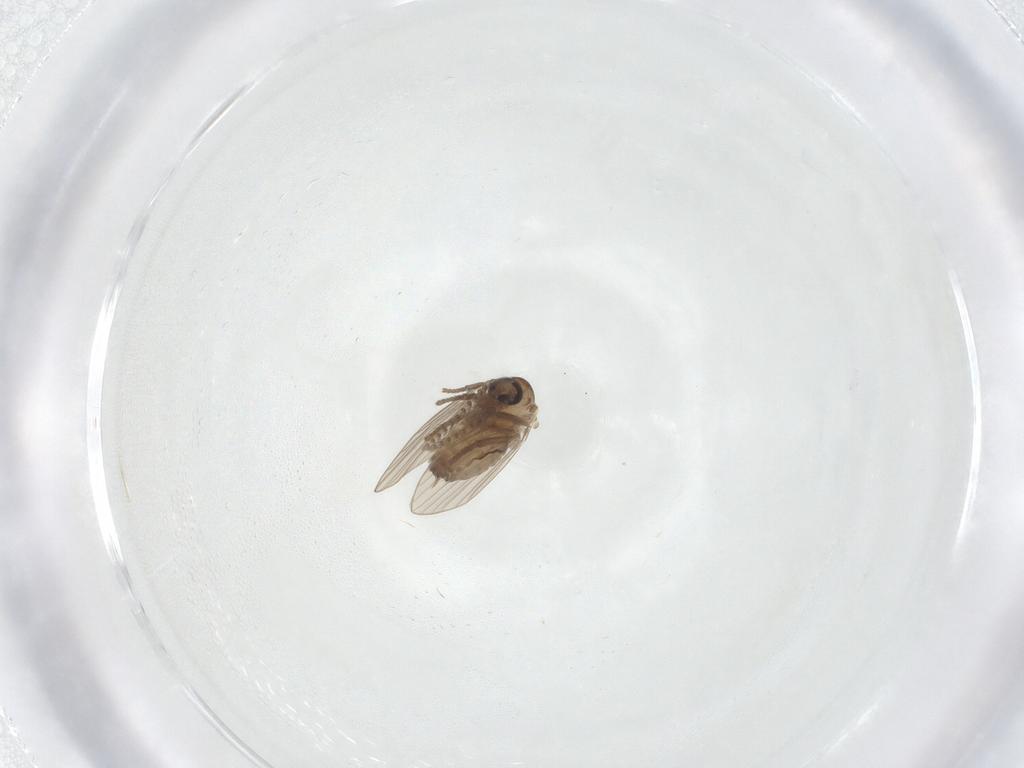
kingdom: Animalia
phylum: Arthropoda
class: Insecta
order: Diptera
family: Psychodidae
